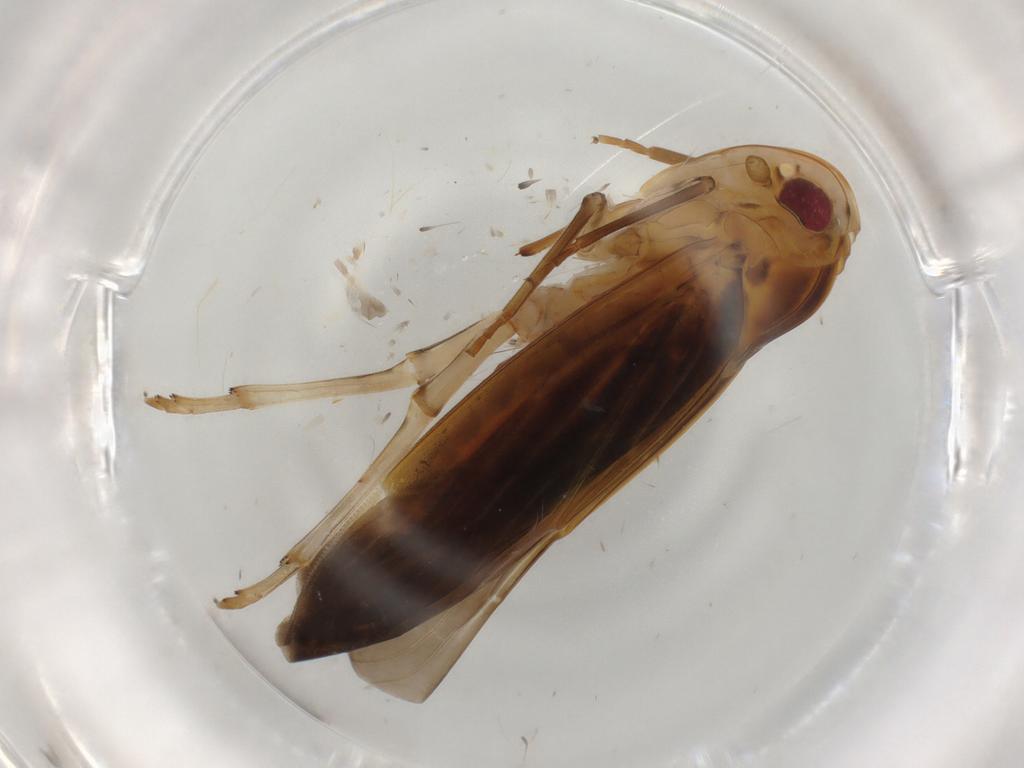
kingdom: Animalia
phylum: Arthropoda
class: Insecta
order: Hemiptera
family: Achilidae
